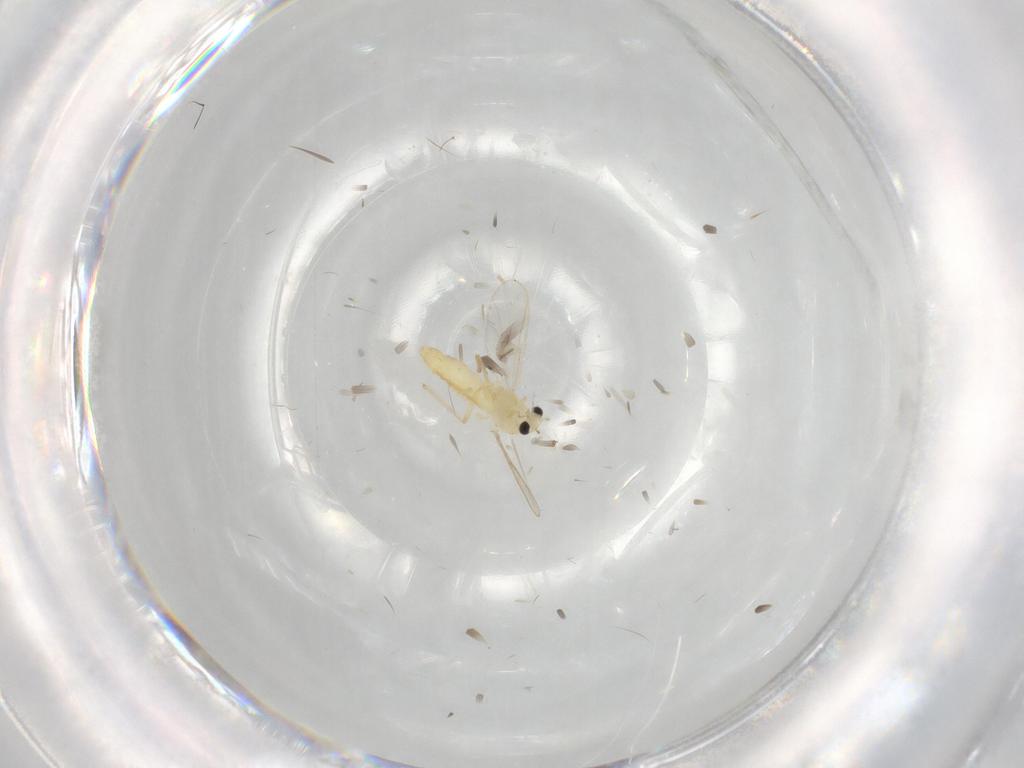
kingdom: Animalia
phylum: Arthropoda
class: Insecta
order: Diptera
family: Chironomidae
